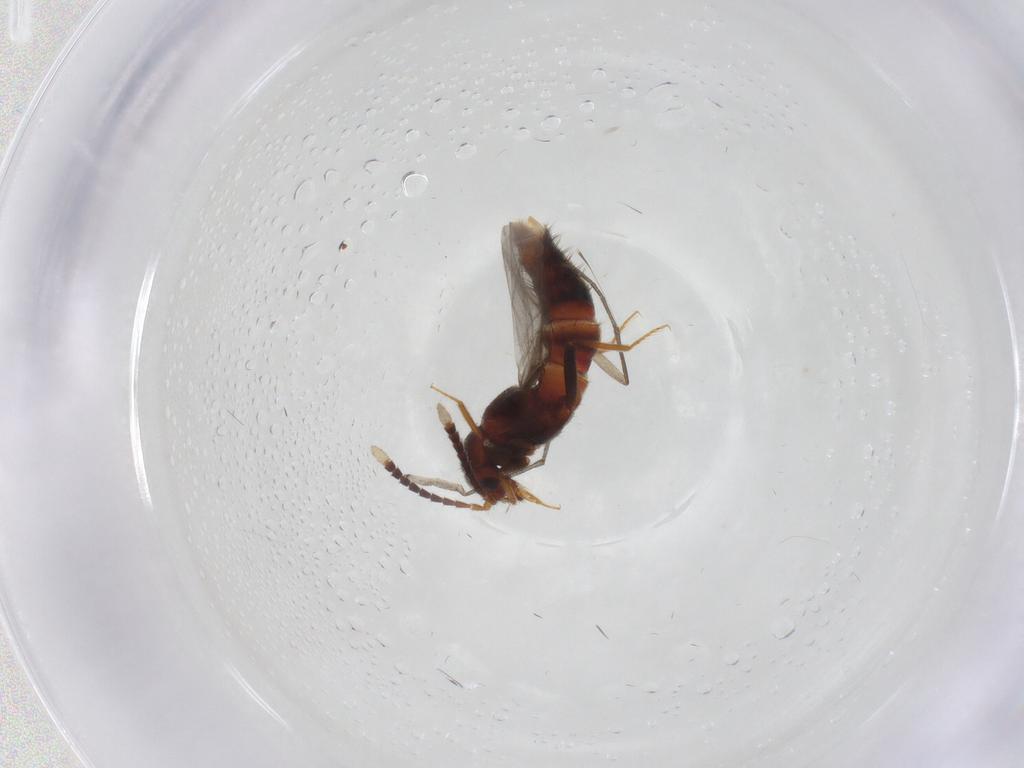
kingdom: Animalia
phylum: Arthropoda
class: Insecta
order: Coleoptera
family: Staphylinidae
